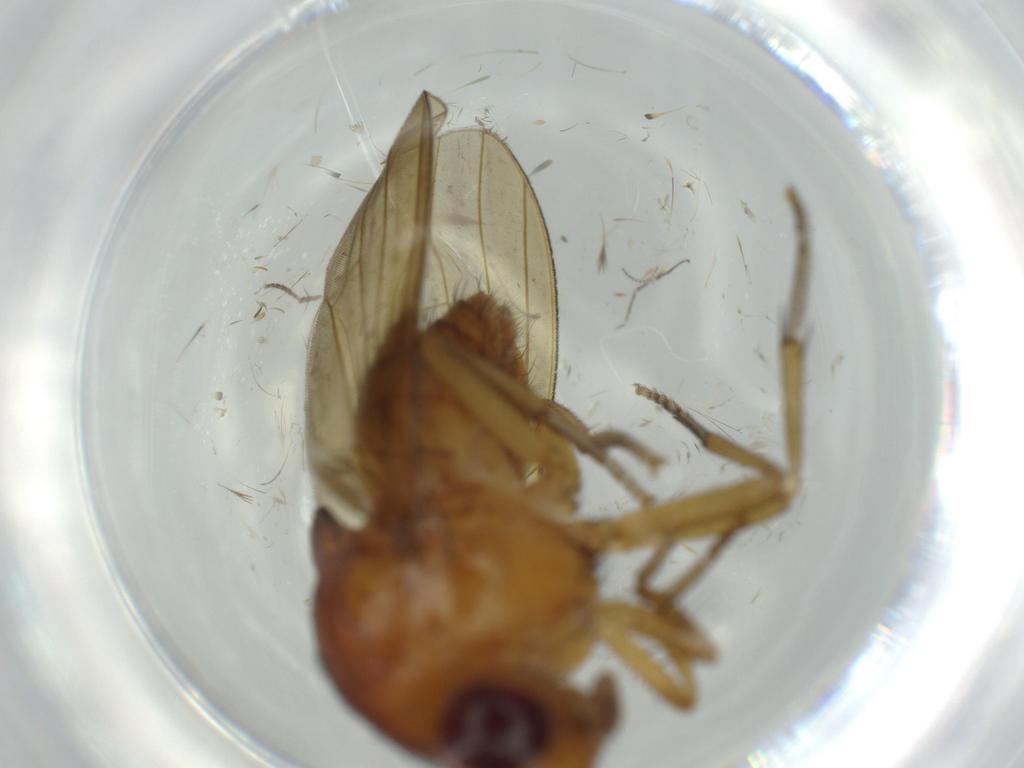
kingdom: Animalia
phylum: Arthropoda
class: Insecta
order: Diptera
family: Cecidomyiidae
